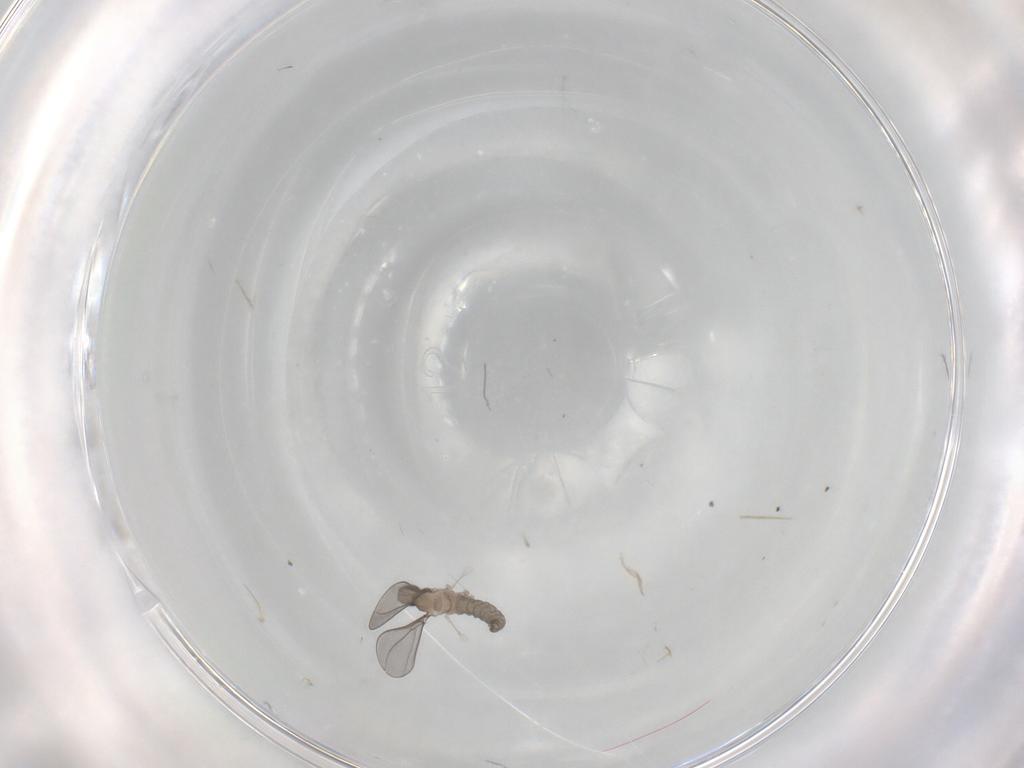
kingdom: Animalia
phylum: Arthropoda
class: Insecta
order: Diptera
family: Cecidomyiidae
